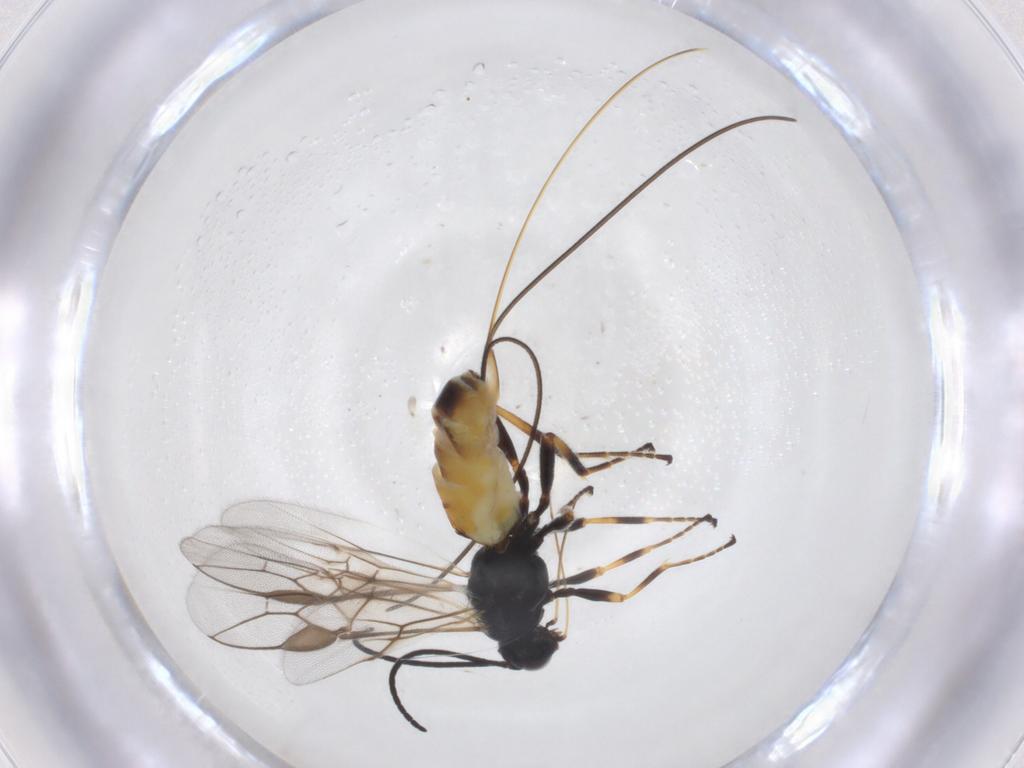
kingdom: Animalia
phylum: Arthropoda
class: Insecta
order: Hymenoptera
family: Braconidae
